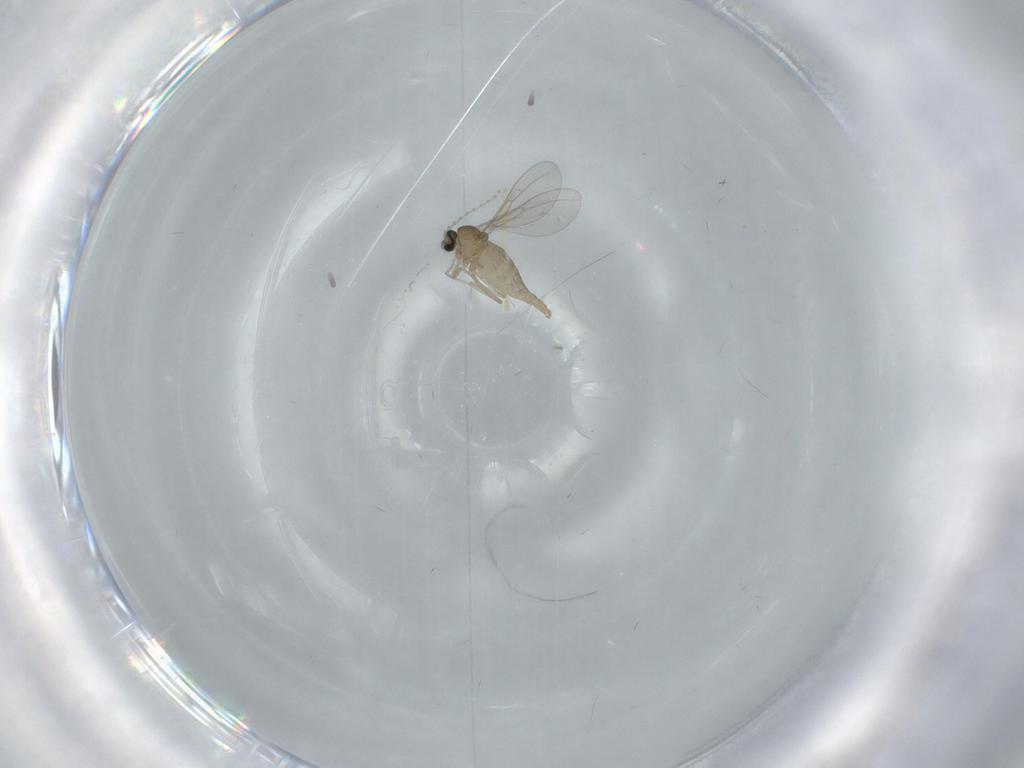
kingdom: Animalia
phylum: Arthropoda
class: Insecta
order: Diptera
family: Cecidomyiidae
